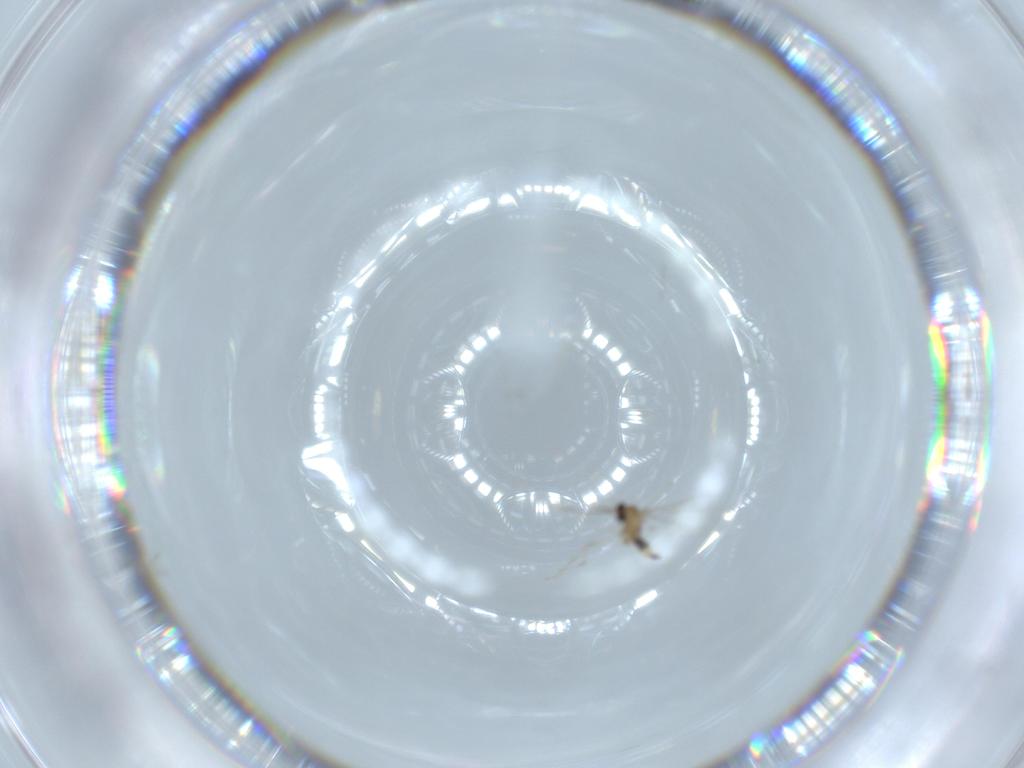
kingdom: Animalia
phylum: Arthropoda
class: Insecta
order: Diptera
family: Cecidomyiidae
